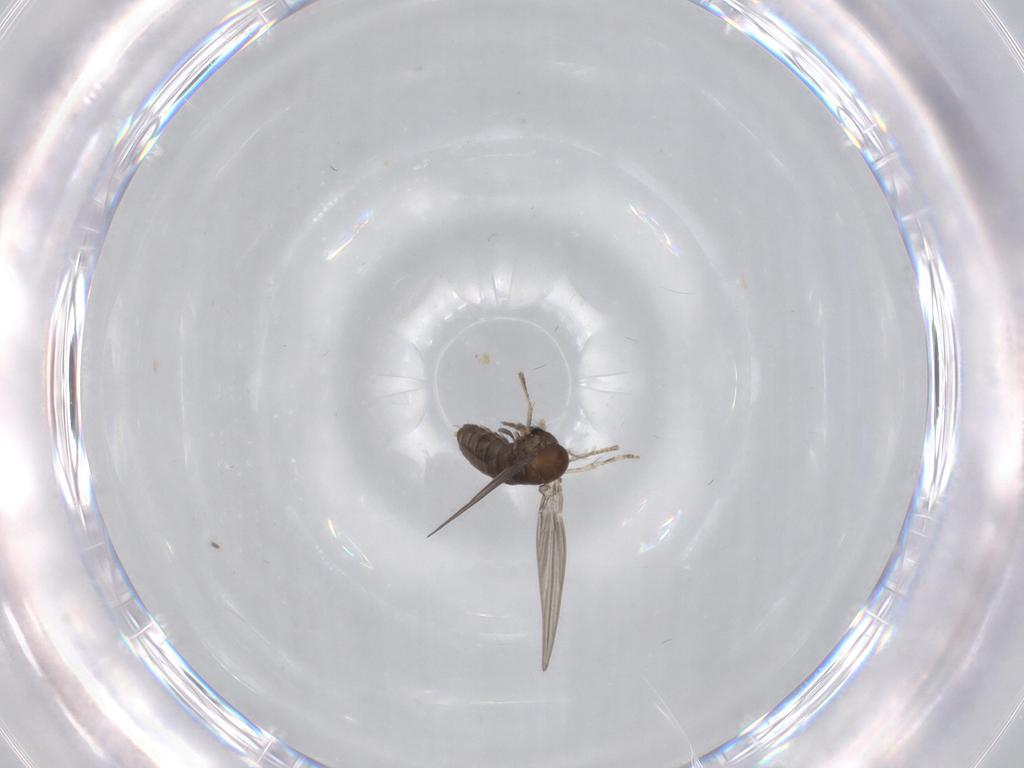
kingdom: Animalia
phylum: Arthropoda
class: Insecta
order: Diptera
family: Psychodidae
